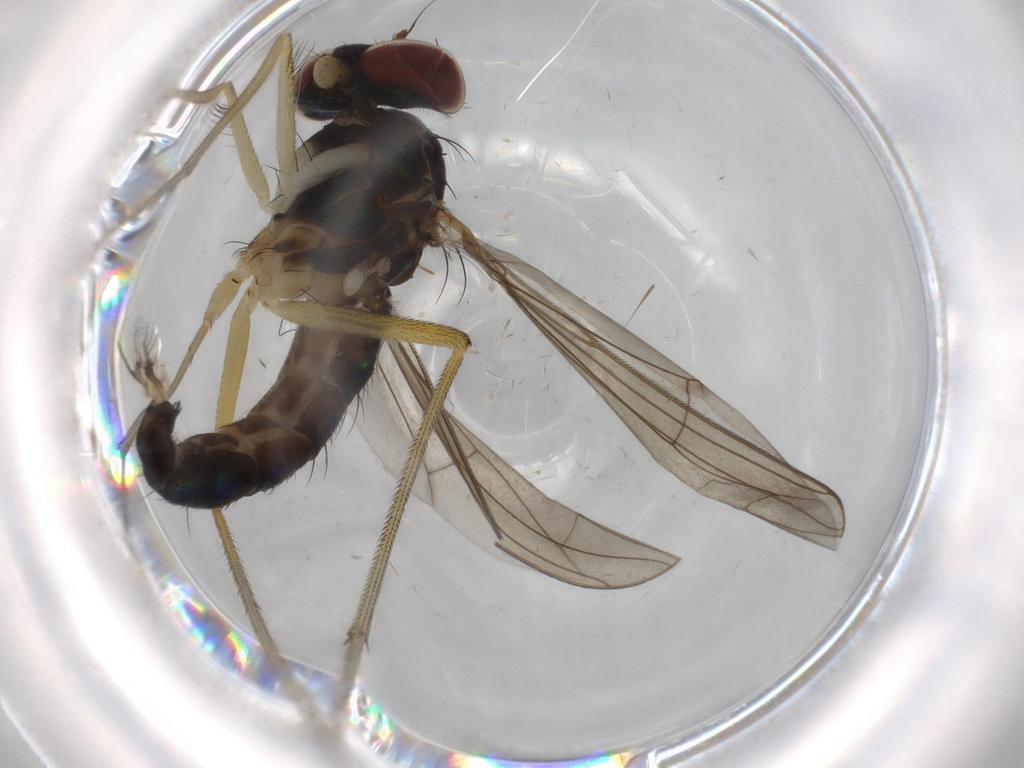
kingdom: Animalia
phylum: Arthropoda
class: Insecta
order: Diptera
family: Dolichopodidae
